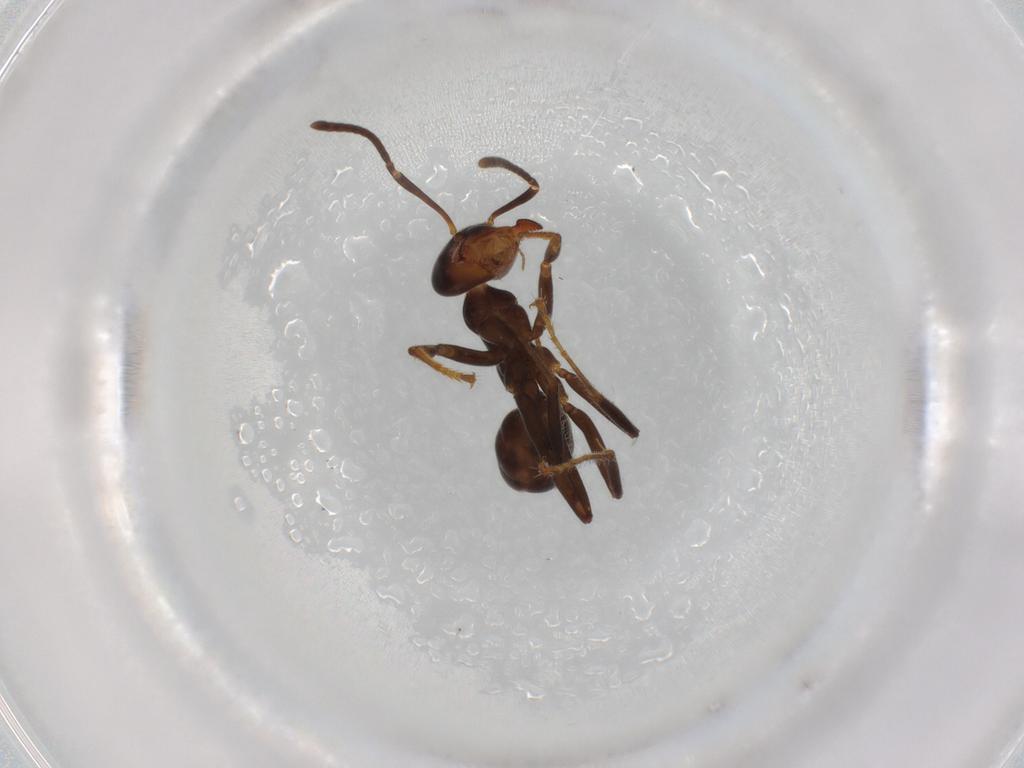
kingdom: Animalia
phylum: Arthropoda
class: Insecta
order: Hymenoptera
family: Formicidae
